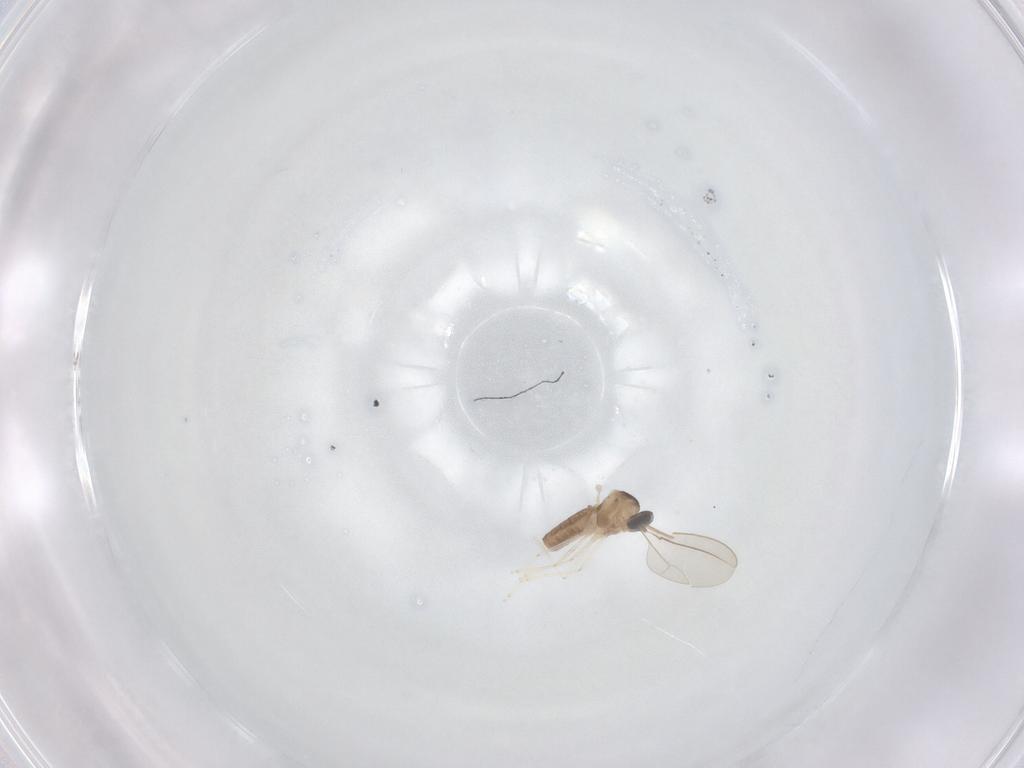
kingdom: Animalia
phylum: Arthropoda
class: Insecta
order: Diptera
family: Cecidomyiidae
